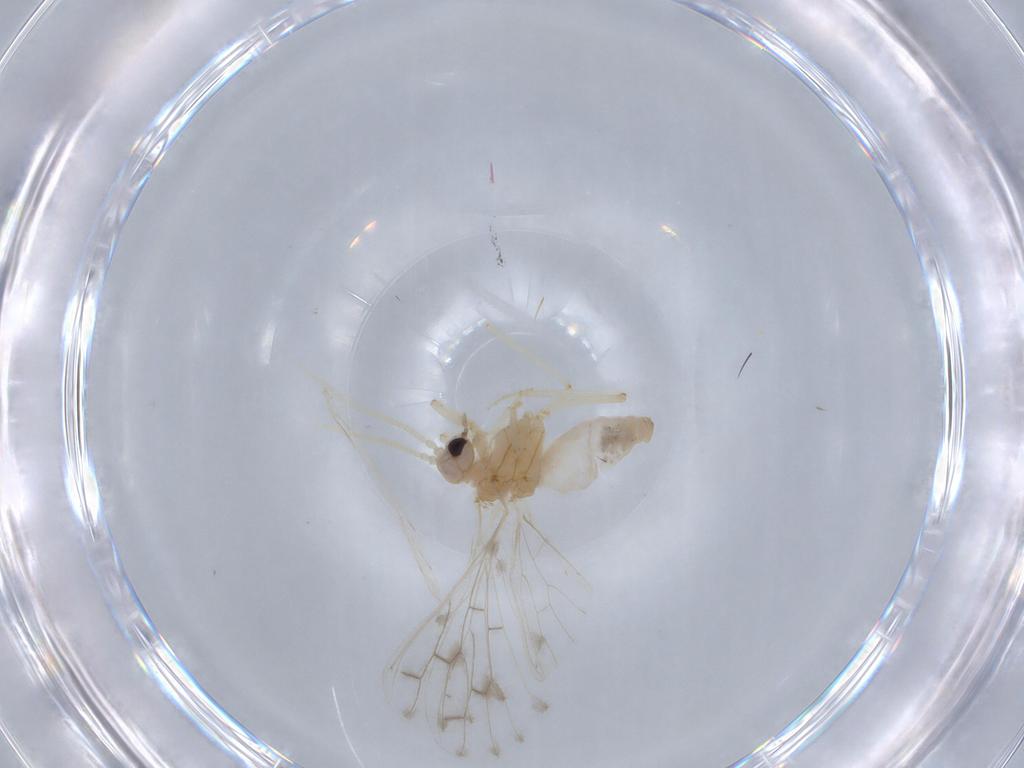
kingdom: Animalia
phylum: Arthropoda
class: Insecta
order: Neuroptera
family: Coniopterygidae
